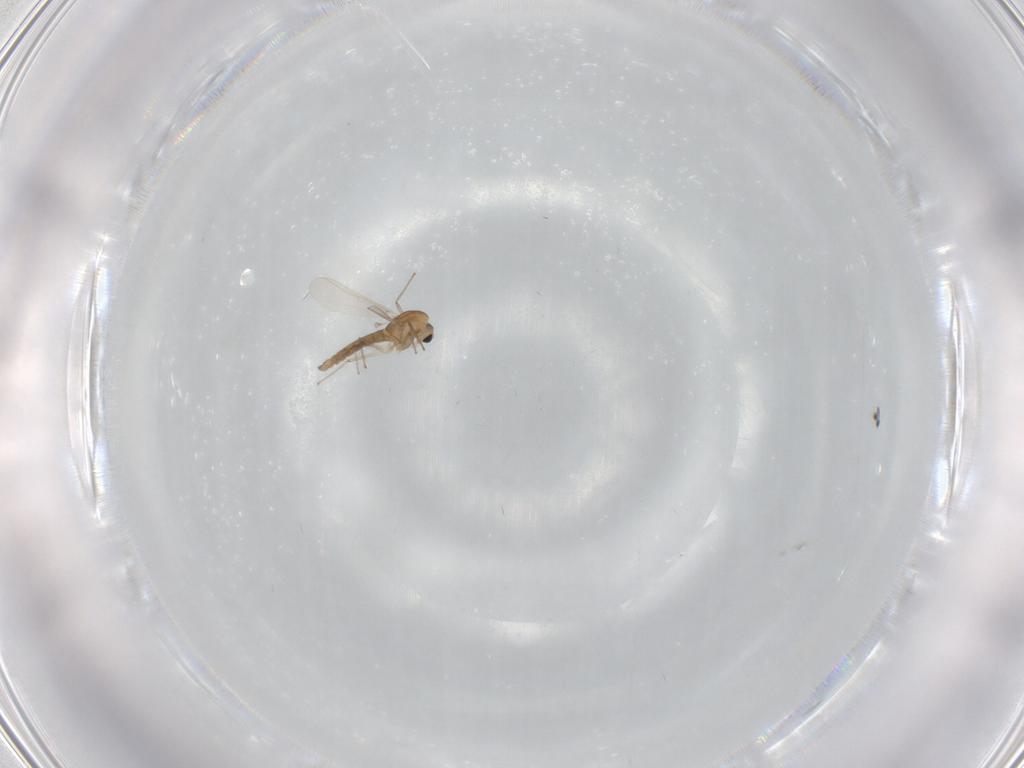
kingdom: Animalia
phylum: Arthropoda
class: Insecta
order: Diptera
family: Chironomidae
